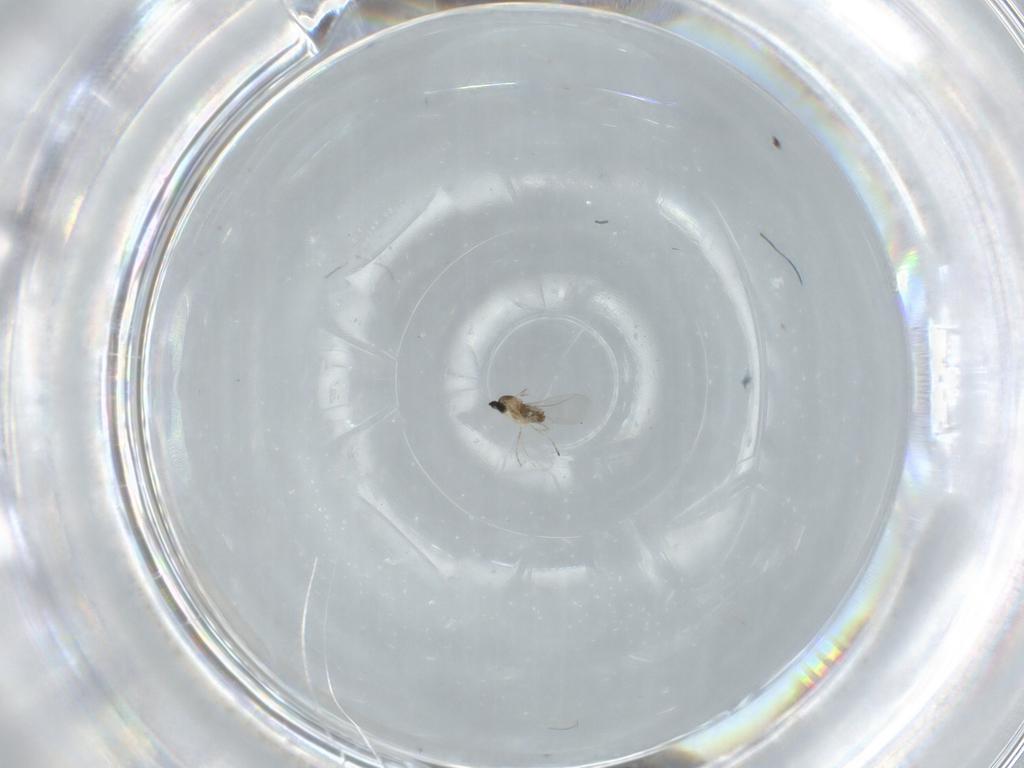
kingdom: Animalia
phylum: Arthropoda
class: Insecta
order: Diptera
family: Cecidomyiidae
